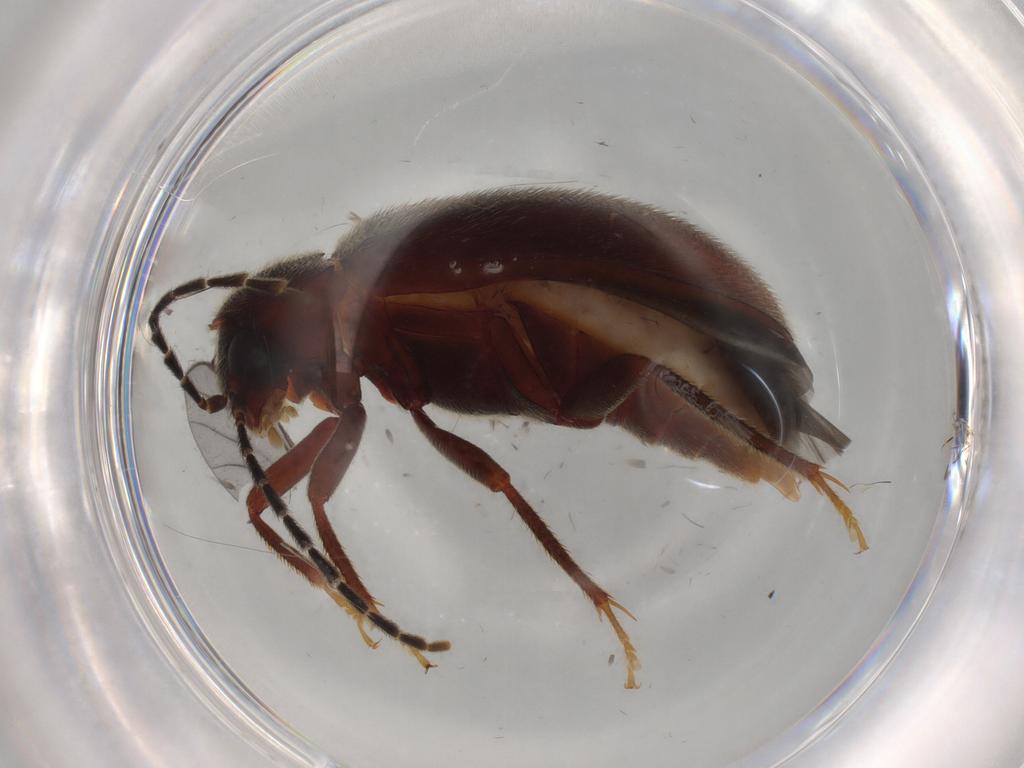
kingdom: Animalia
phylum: Arthropoda
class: Insecta
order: Coleoptera
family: Ptilodactylidae
